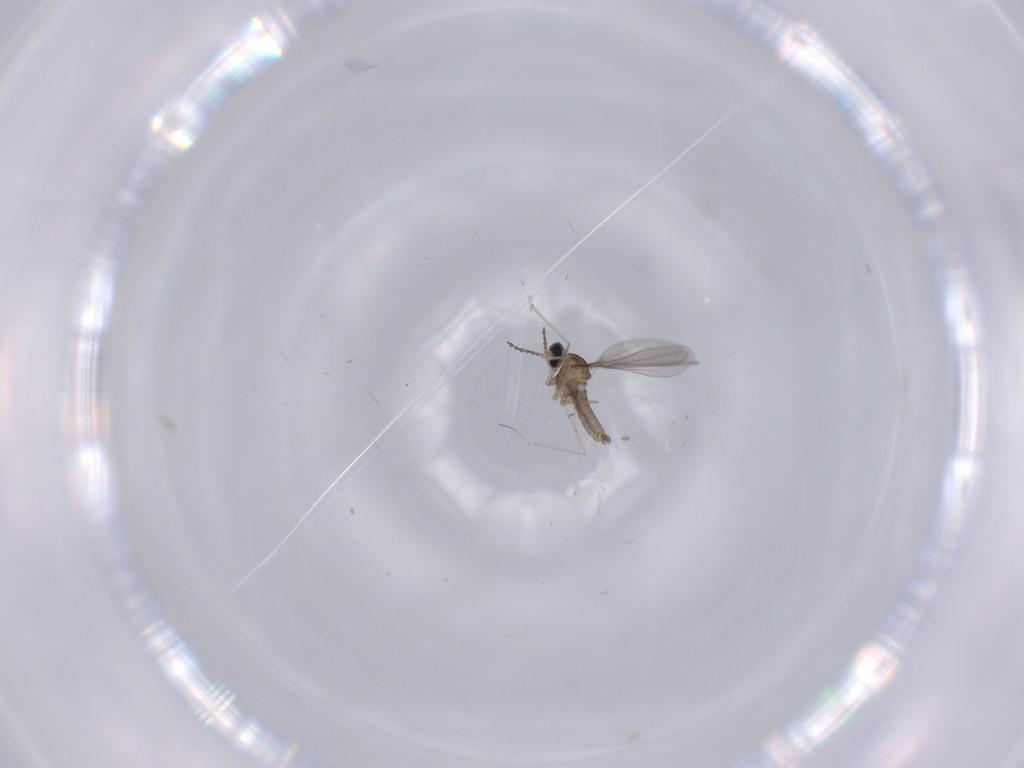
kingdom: Animalia
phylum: Arthropoda
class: Insecta
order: Diptera
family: Cecidomyiidae
